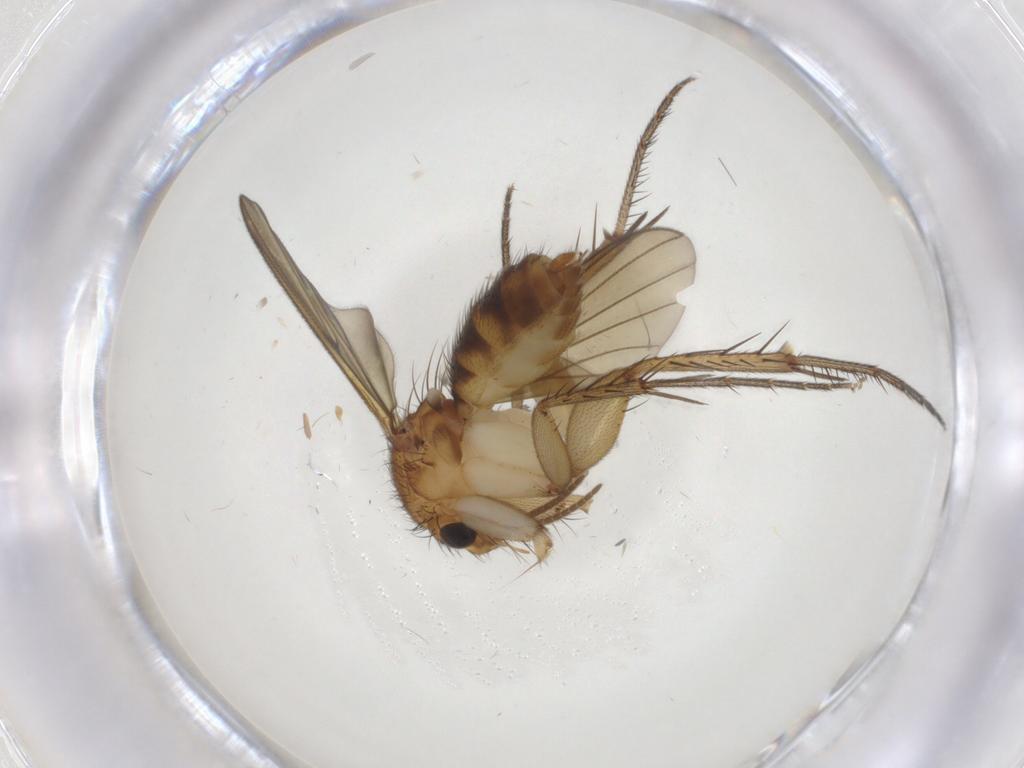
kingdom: Animalia
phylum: Arthropoda
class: Insecta
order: Diptera
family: Mycetophilidae
